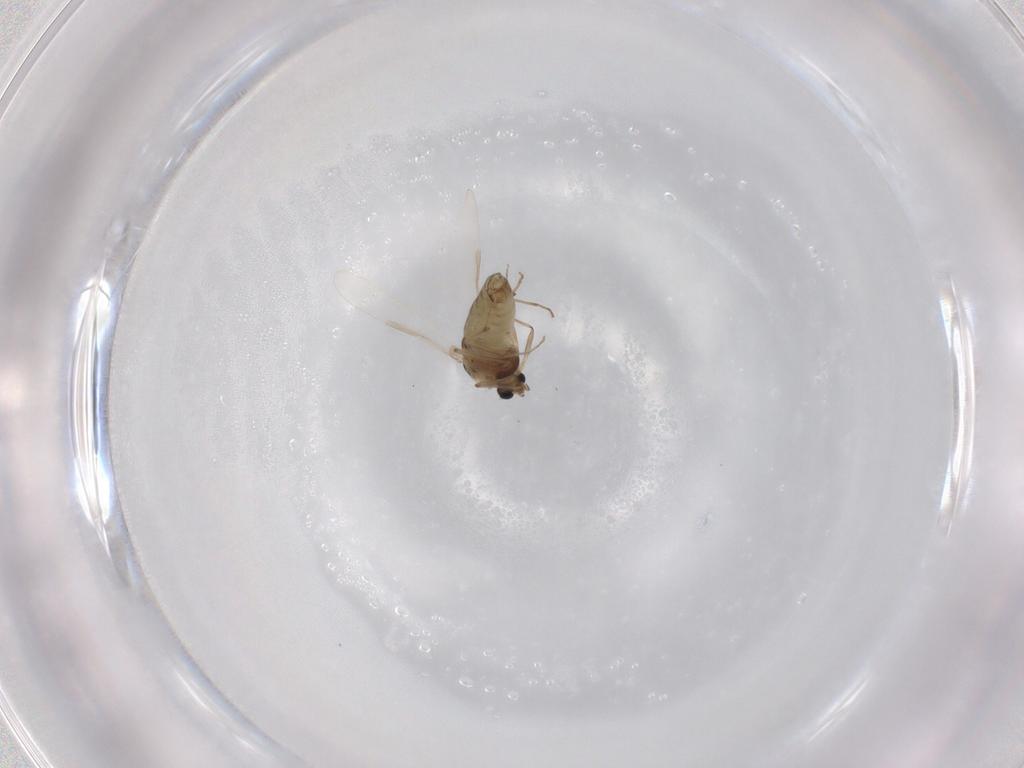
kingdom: Animalia
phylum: Arthropoda
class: Insecta
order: Diptera
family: Chironomidae
